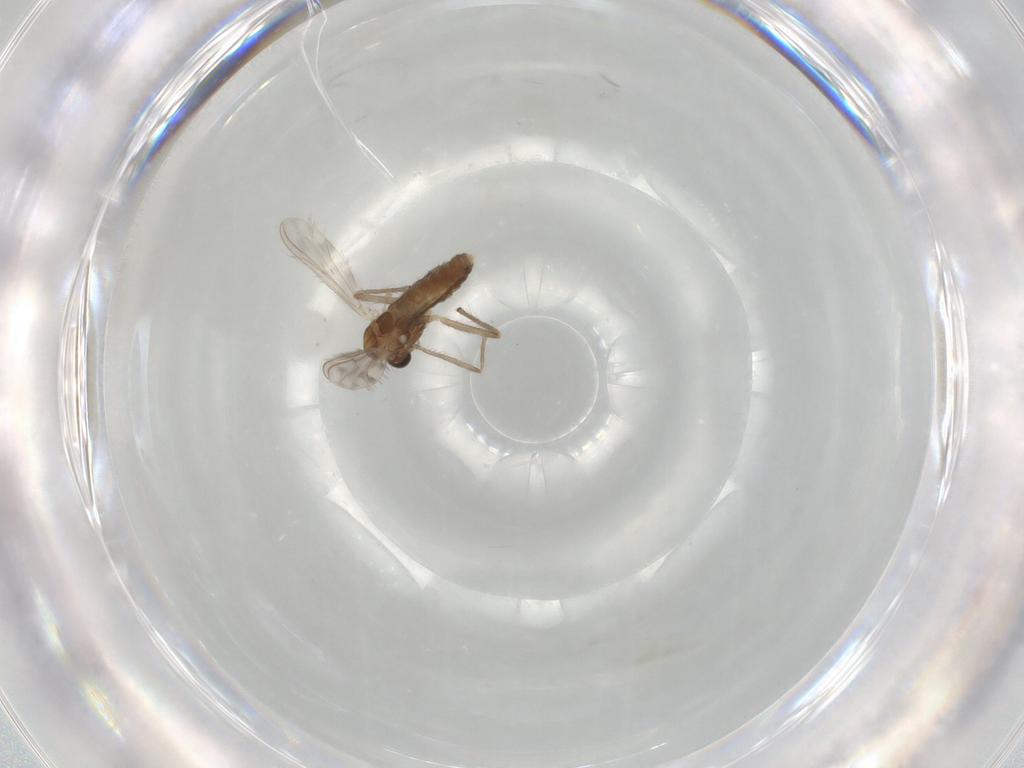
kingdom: Animalia
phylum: Arthropoda
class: Insecta
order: Diptera
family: Chironomidae
